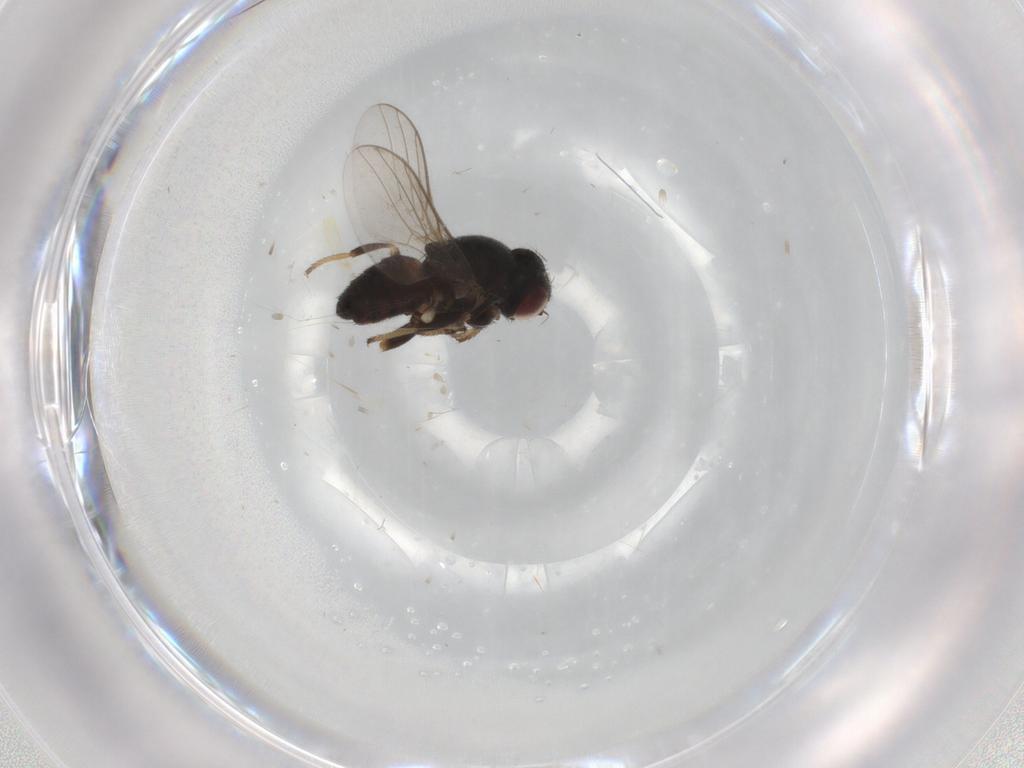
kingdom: Animalia
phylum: Arthropoda
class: Insecta
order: Diptera
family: Chloropidae
